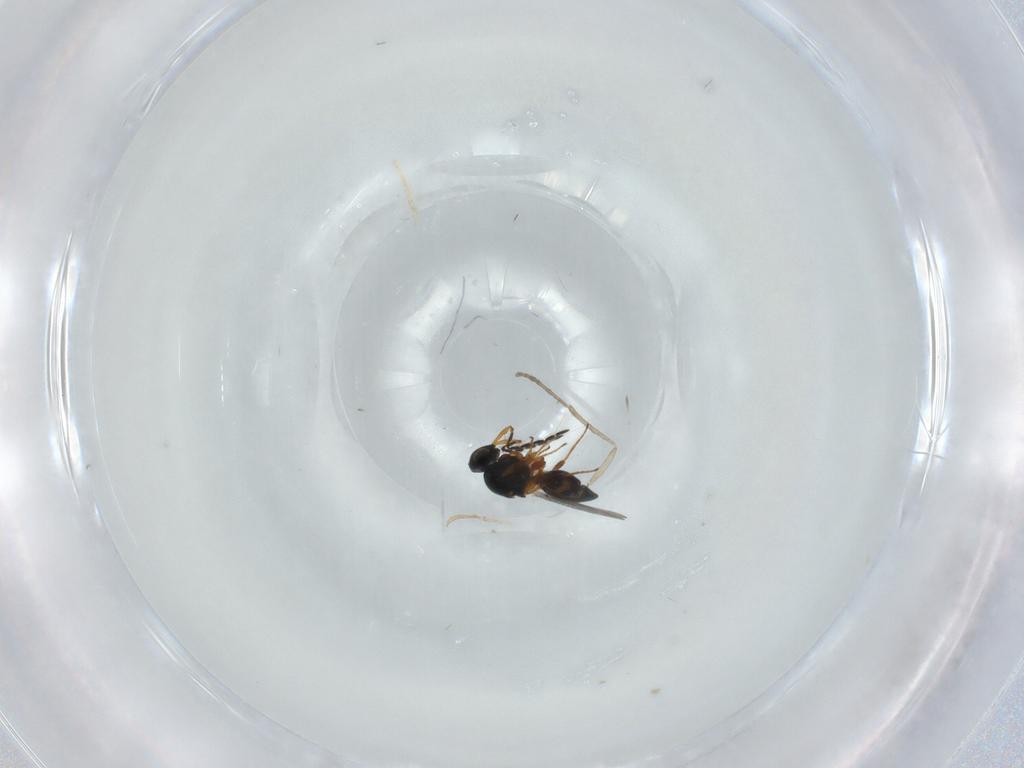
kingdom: Animalia
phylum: Arthropoda
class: Insecta
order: Hymenoptera
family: Platygastridae
